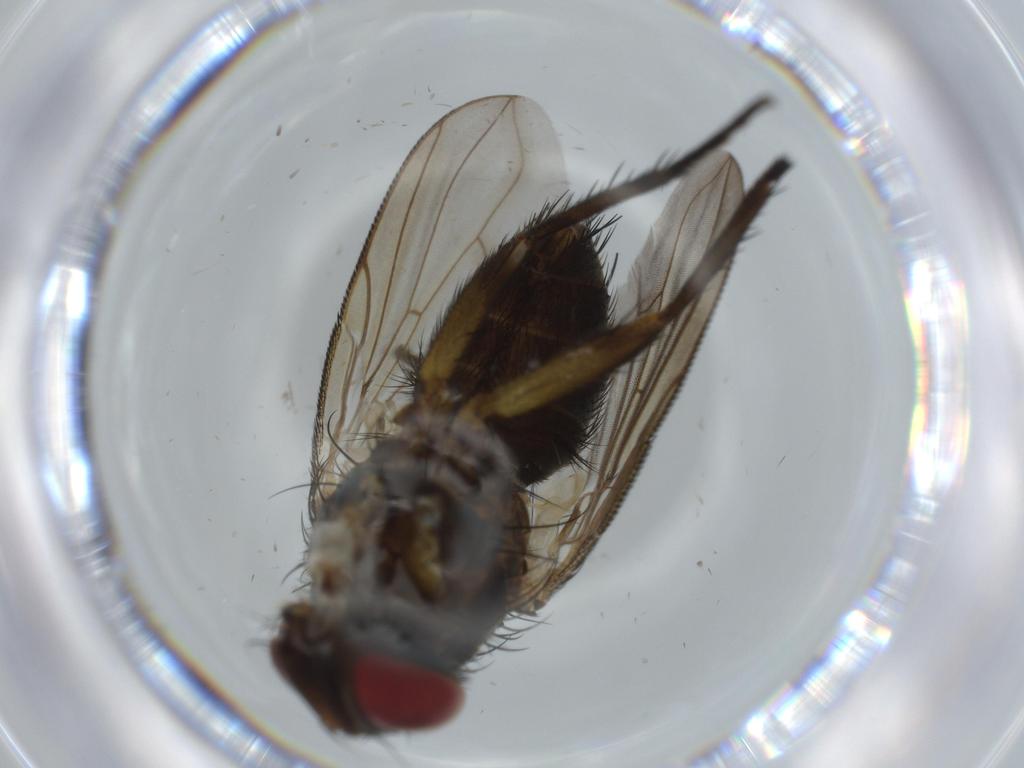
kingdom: Animalia
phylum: Arthropoda
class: Insecta
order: Diptera
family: Limoniidae
